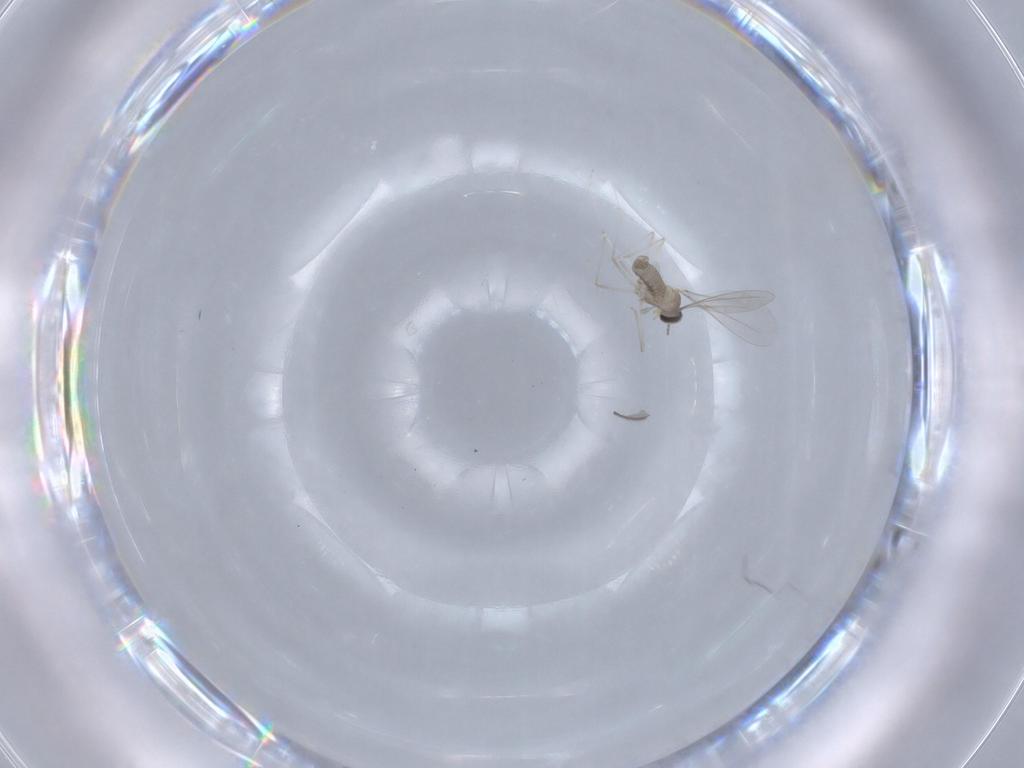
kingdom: Animalia
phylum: Arthropoda
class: Insecta
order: Diptera
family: Cecidomyiidae
